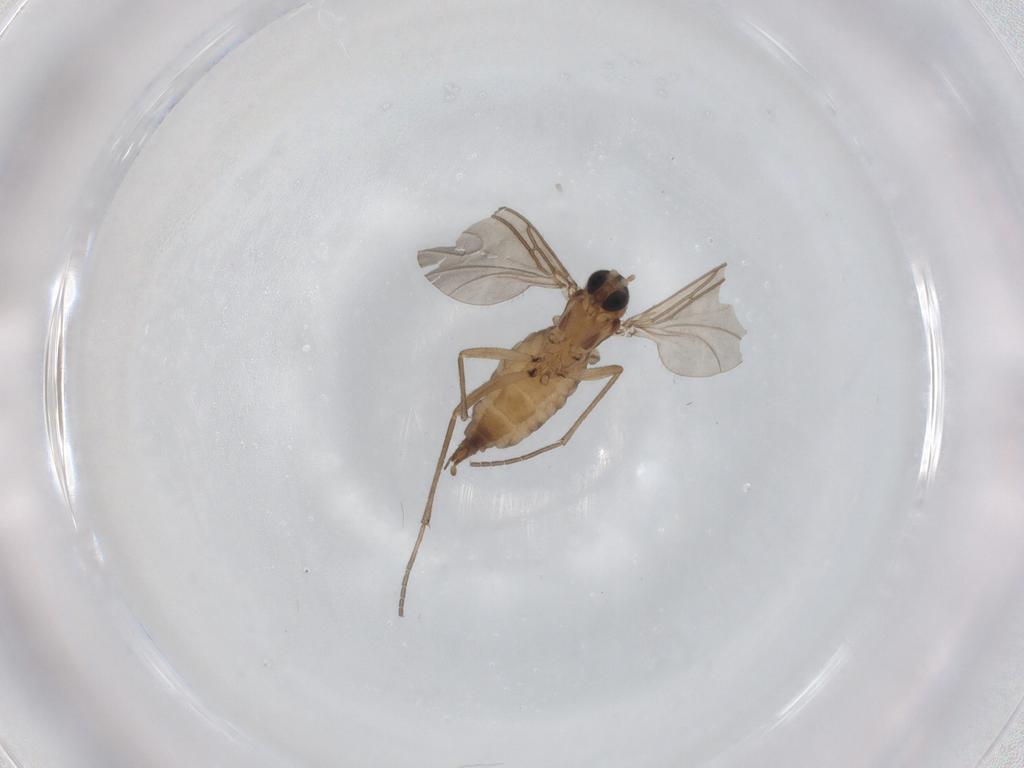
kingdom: Animalia
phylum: Arthropoda
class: Insecta
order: Diptera
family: Sciaridae
